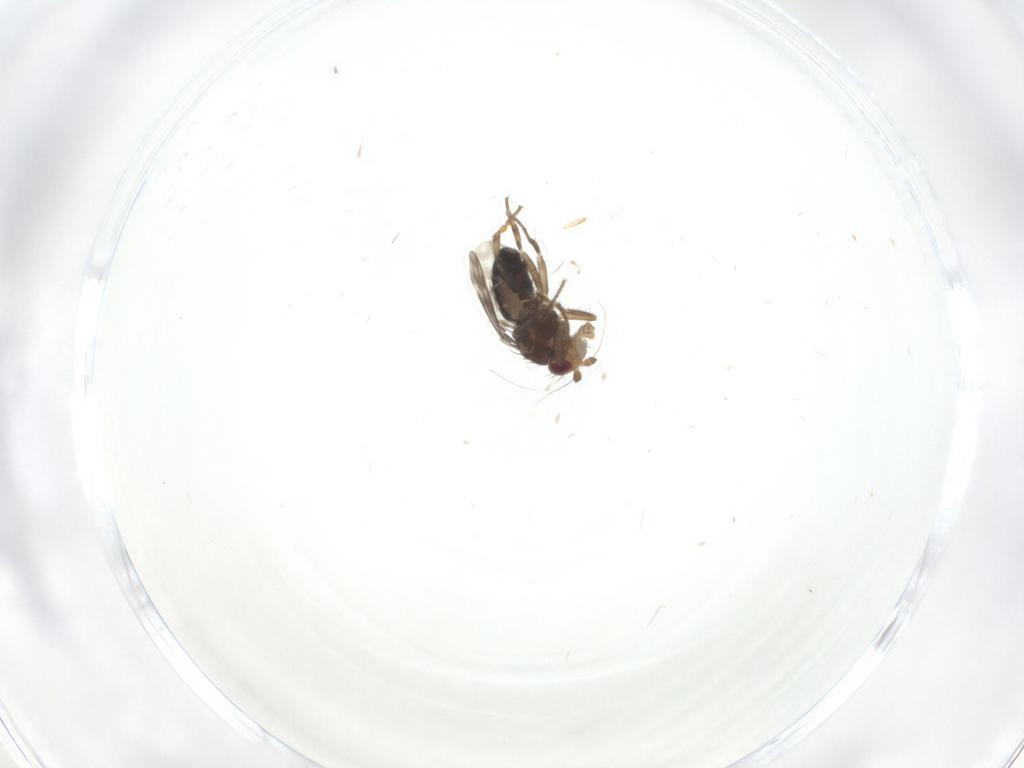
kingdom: Animalia
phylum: Arthropoda
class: Insecta
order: Diptera
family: Sphaeroceridae
